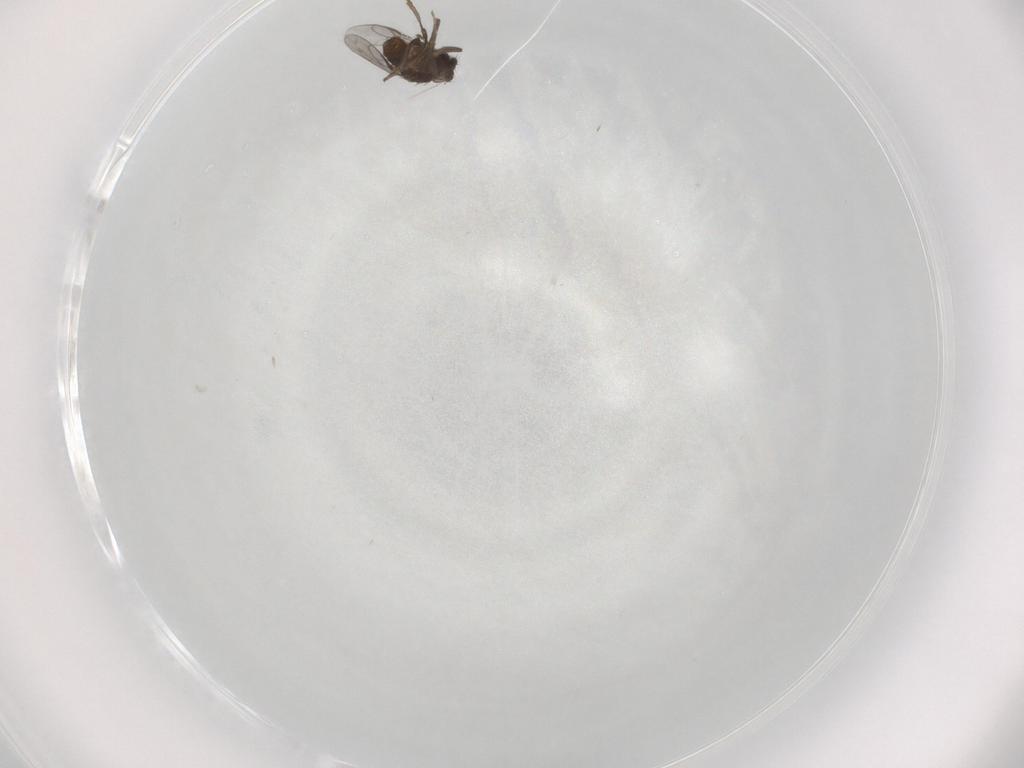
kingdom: Animalia
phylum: Arthropoda
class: Insecta
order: Diptera
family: Sphaeroceridae
